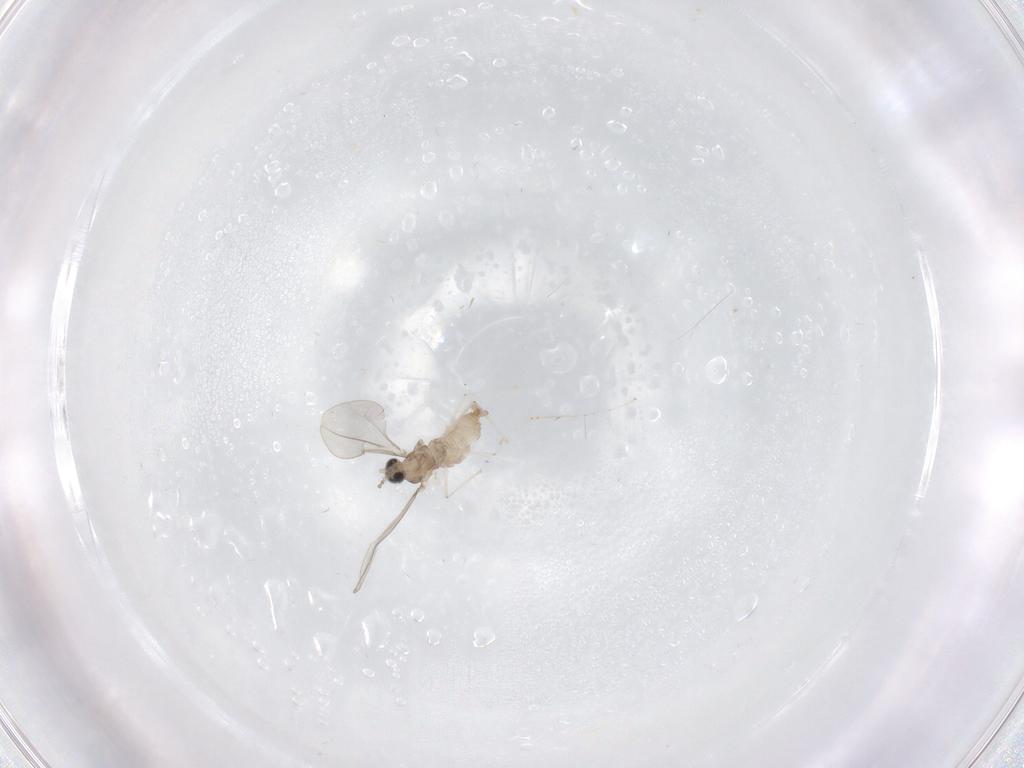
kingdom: Animalia
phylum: Arthropoda
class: Insecta
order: Diptera
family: Cecidomyiidae
